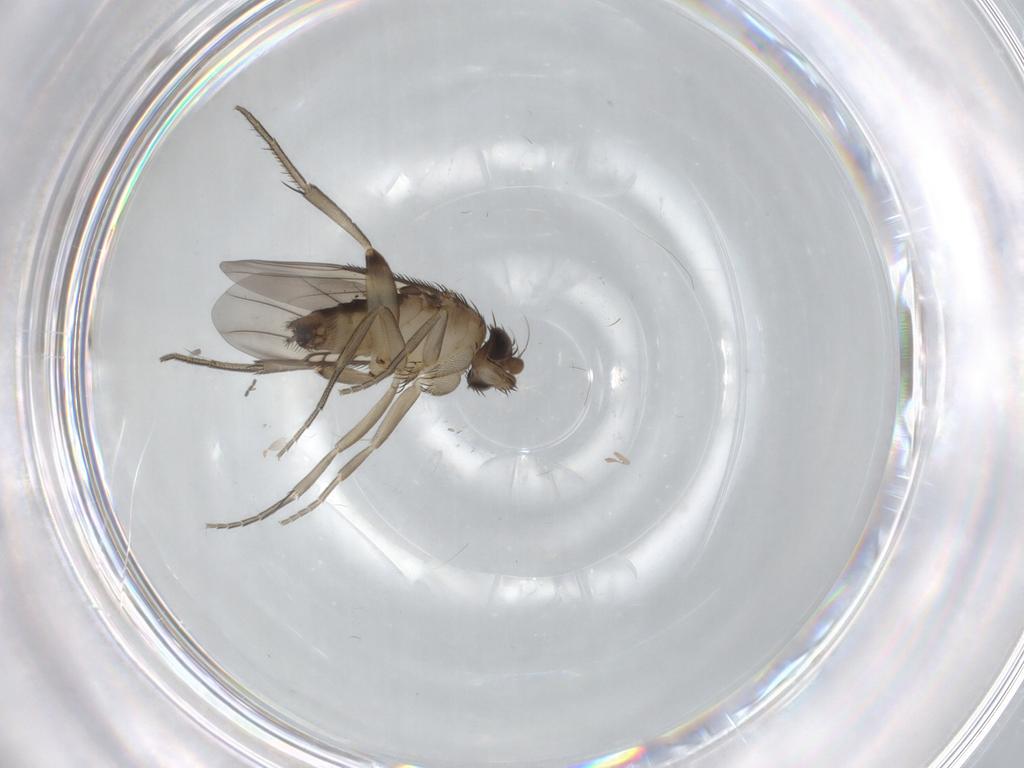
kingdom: Animalia
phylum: Arthropoda
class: Insecta
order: Diptera
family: Phoridae
